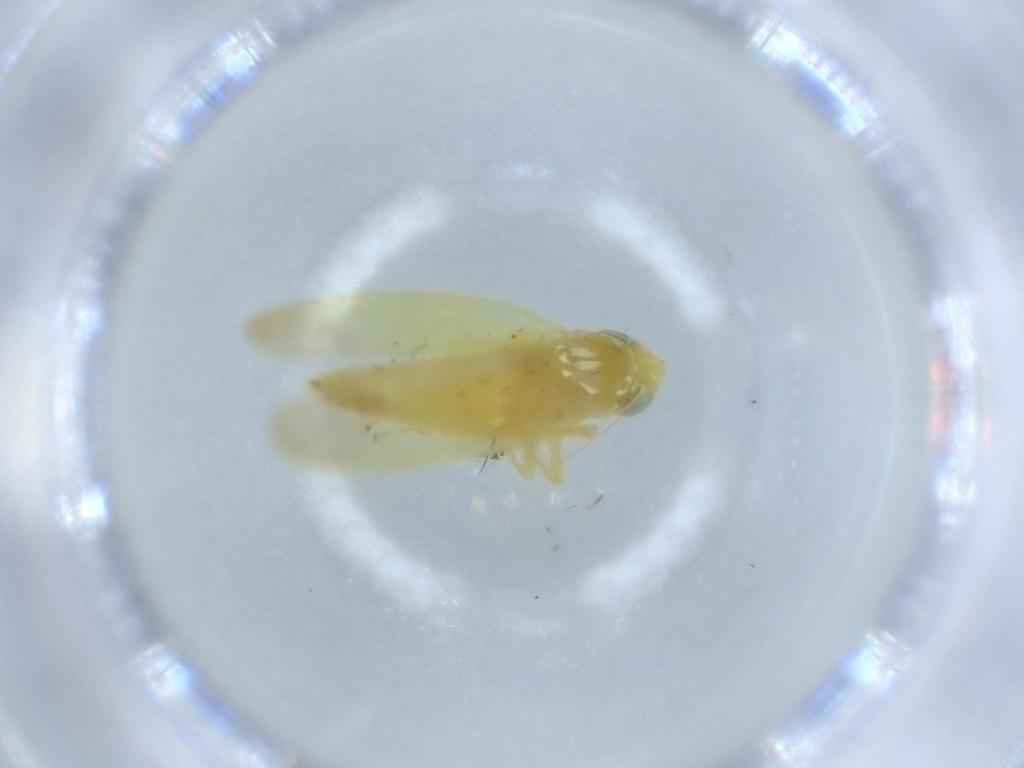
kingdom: Animalia
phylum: Arthropoda
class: Insecta
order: Hemiptera
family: Cicadellidae
